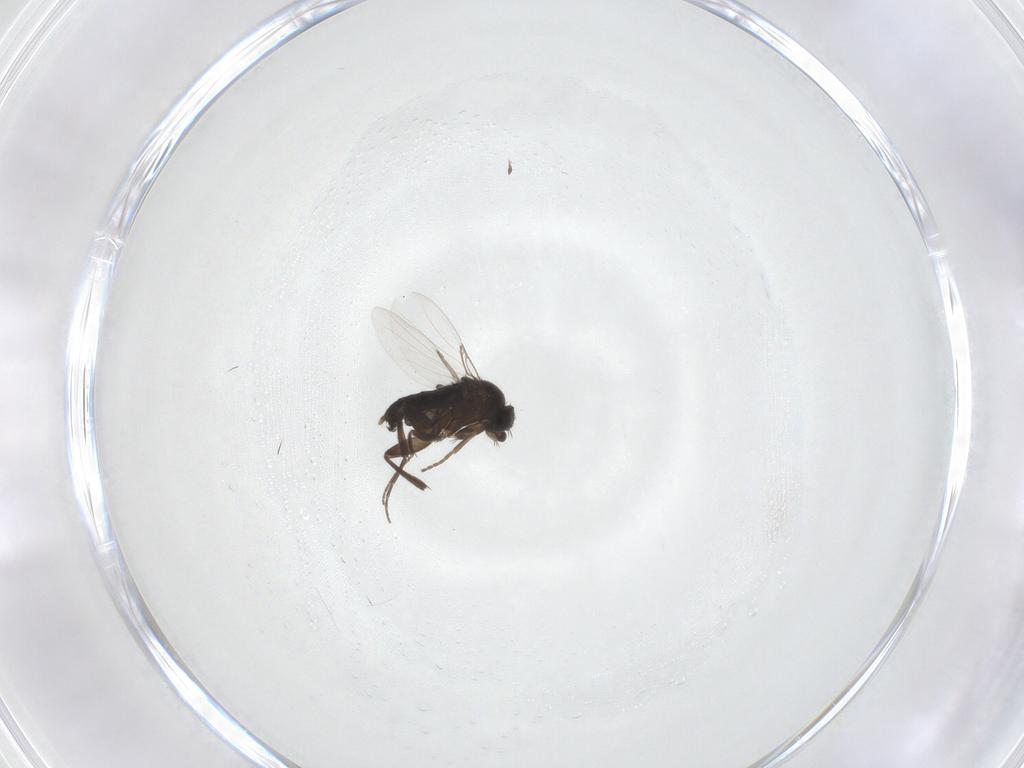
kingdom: Animalia
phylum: Arthropoda
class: Insecta
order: Diptera
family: Phoridae
